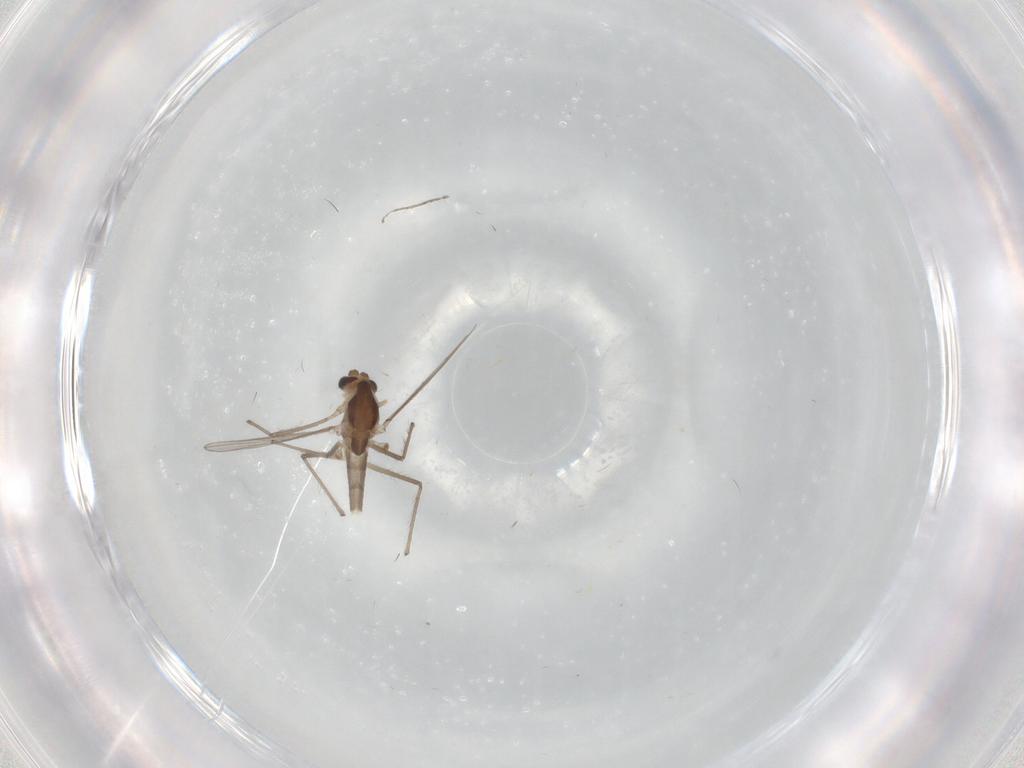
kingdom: Animalia
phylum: Arthropoda
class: Insecta
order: Diptera
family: Chironomidae
